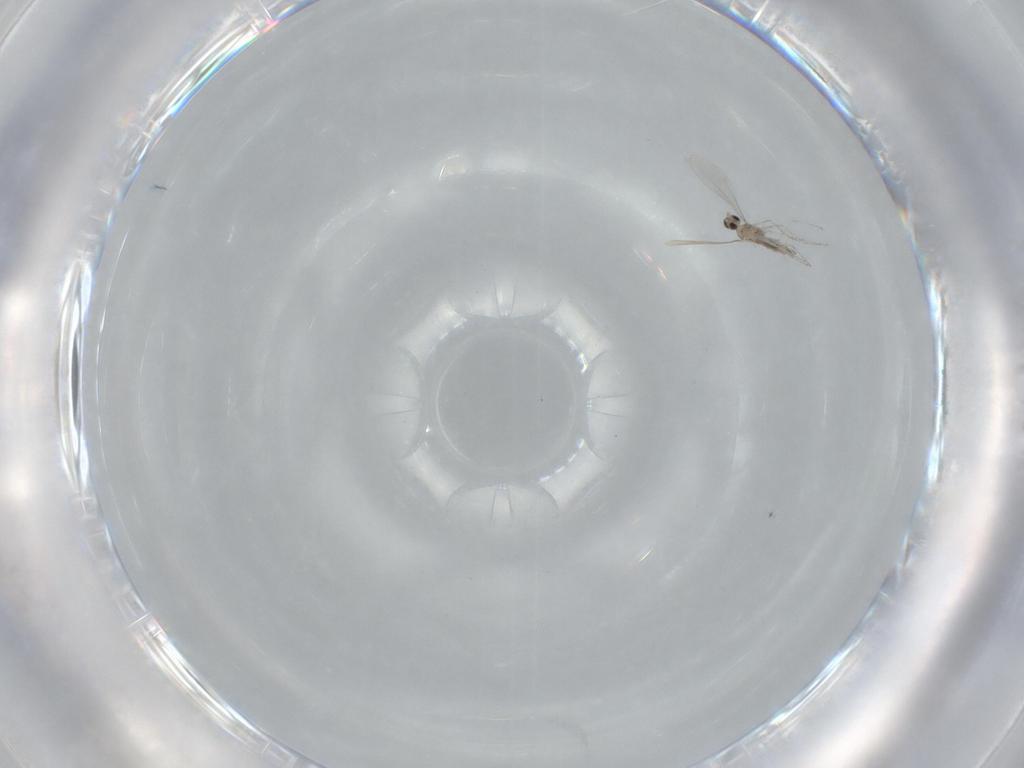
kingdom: Animalia
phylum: Arthropoda
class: Insecta
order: Diptera
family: Cecidomyiidae
